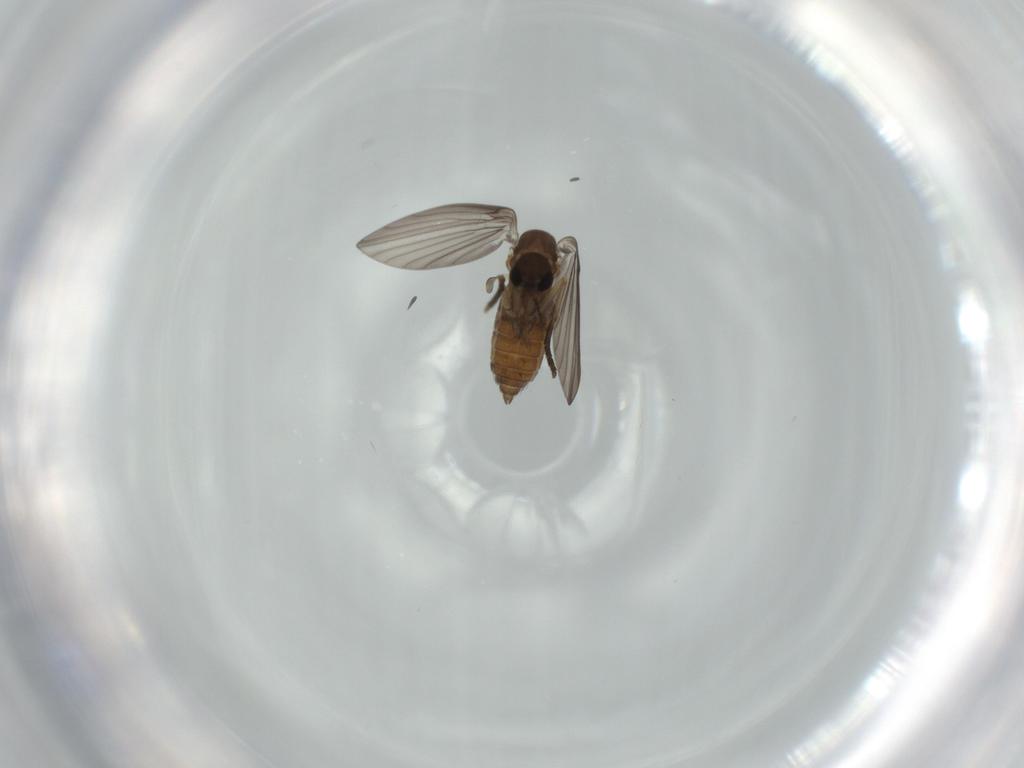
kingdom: Animalia
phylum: Arthropoda
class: Insecta
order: Diptera
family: Psychodidae
